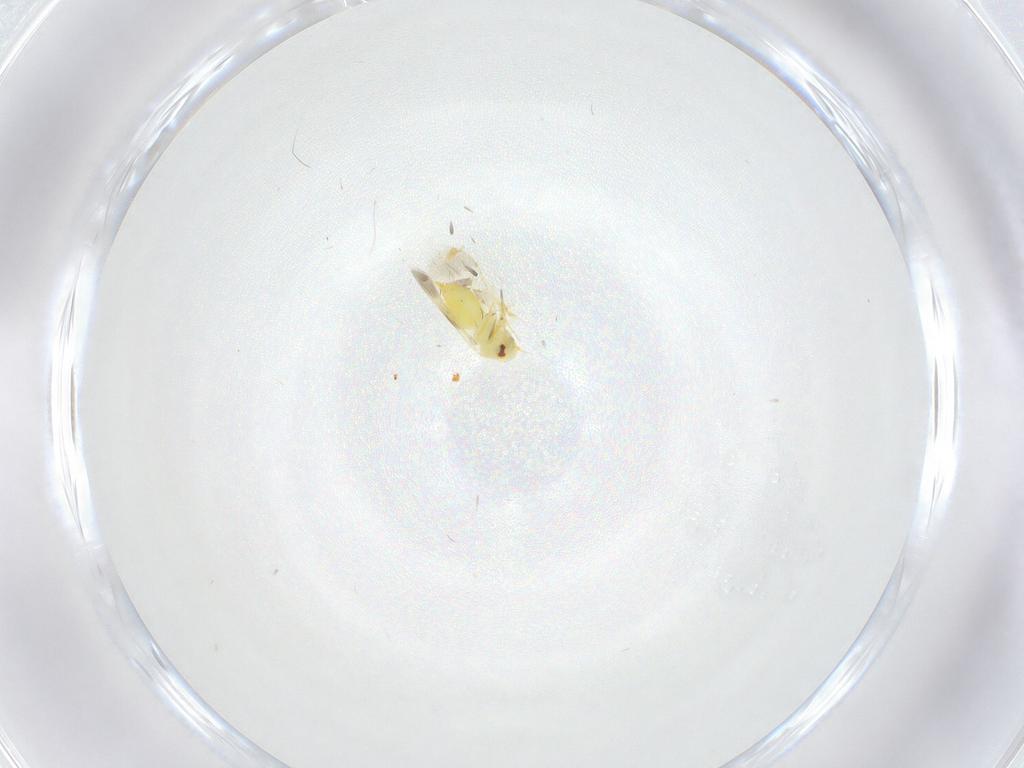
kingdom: Animalia
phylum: Arthropoda
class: Insecta
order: Hemiptera
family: Aleyrodidae
